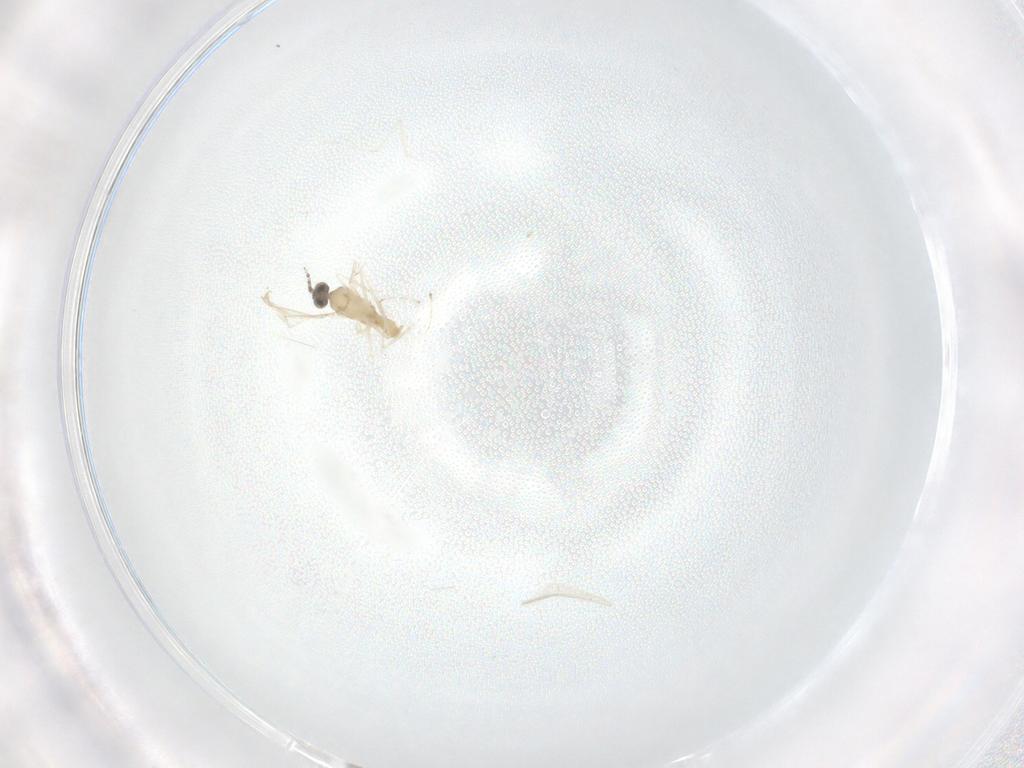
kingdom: Animalia
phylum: Arthropoda
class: Insecta
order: Diptera
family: Cecidomyiidae
